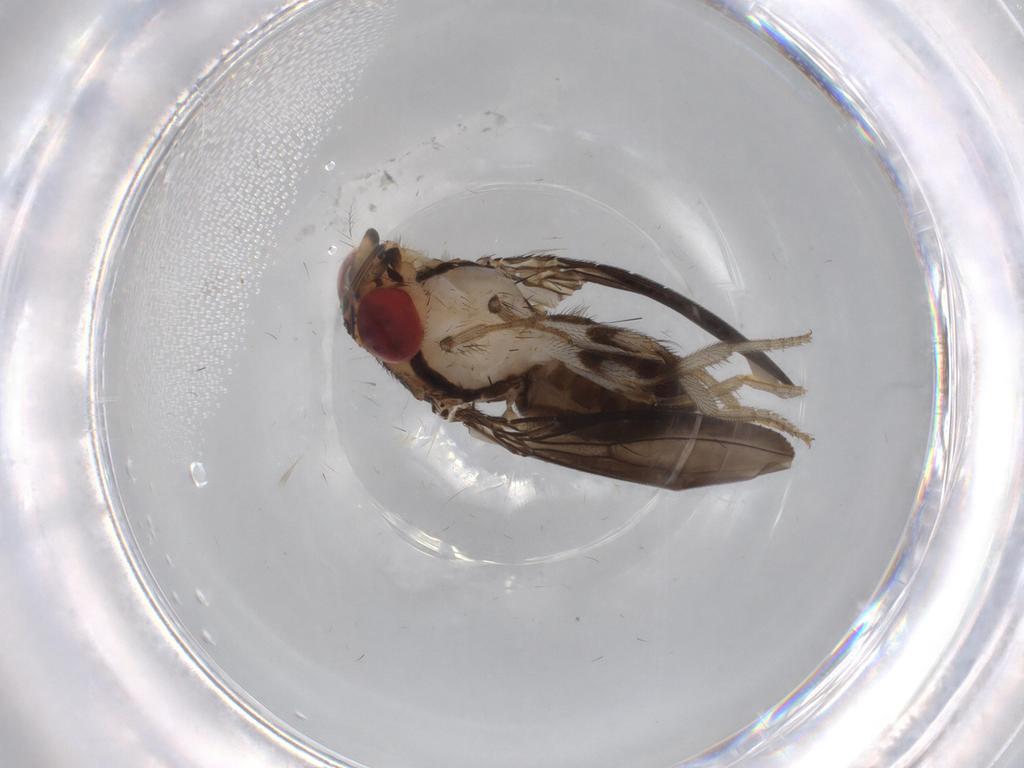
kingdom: Animalia
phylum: Arthropoda
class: Insecta
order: Diptera
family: Drosophilidae
